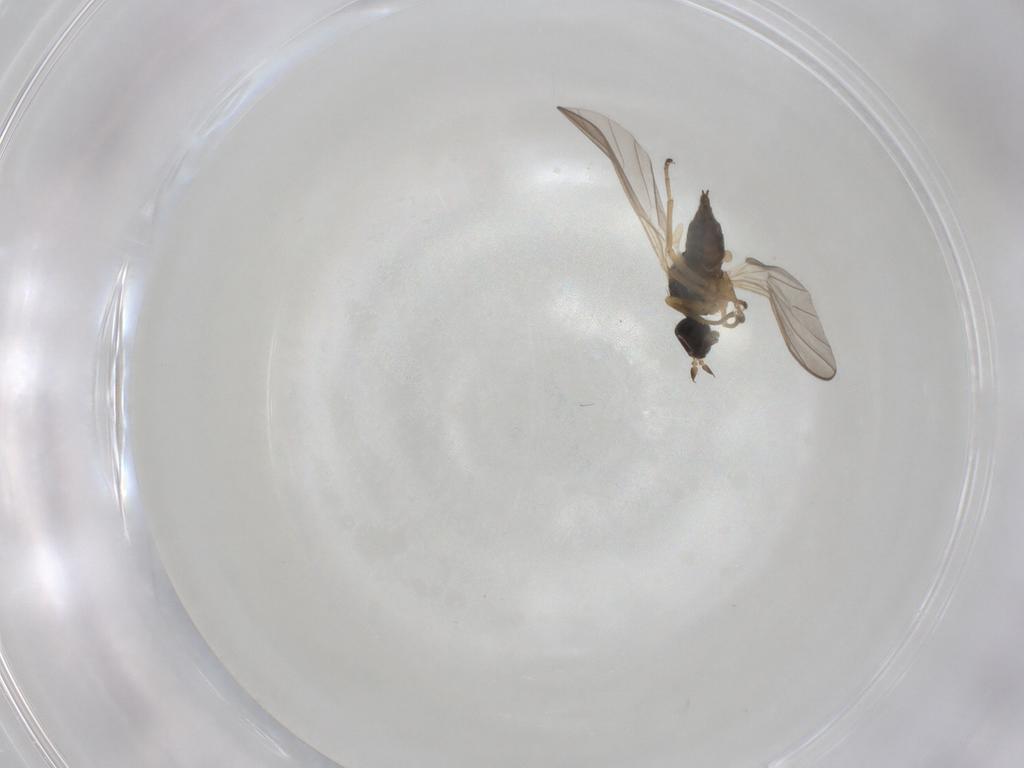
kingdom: Animalia
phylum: Arthropoda
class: Insecta
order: Diptera
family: Hybotidae
